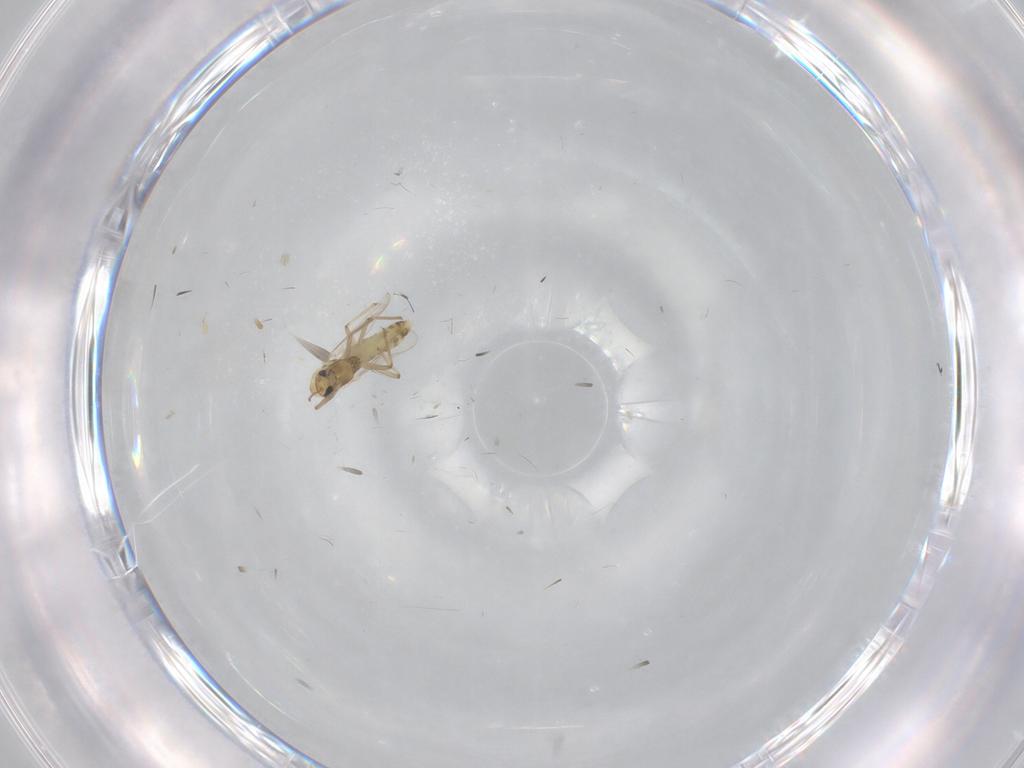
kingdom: Animalia
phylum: Arthropoda
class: Insecta
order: Diptera
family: Chironomidae
